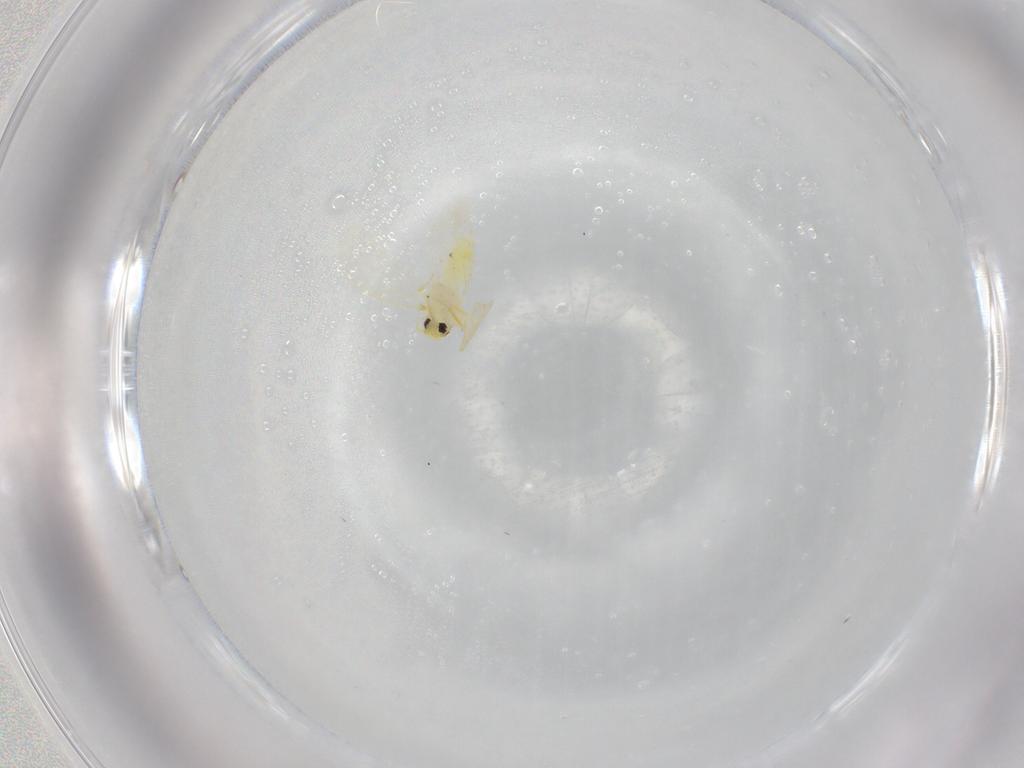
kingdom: Animalia
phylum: Arthropoda
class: Insecta
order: Hemiptera
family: Aleyrodidae
